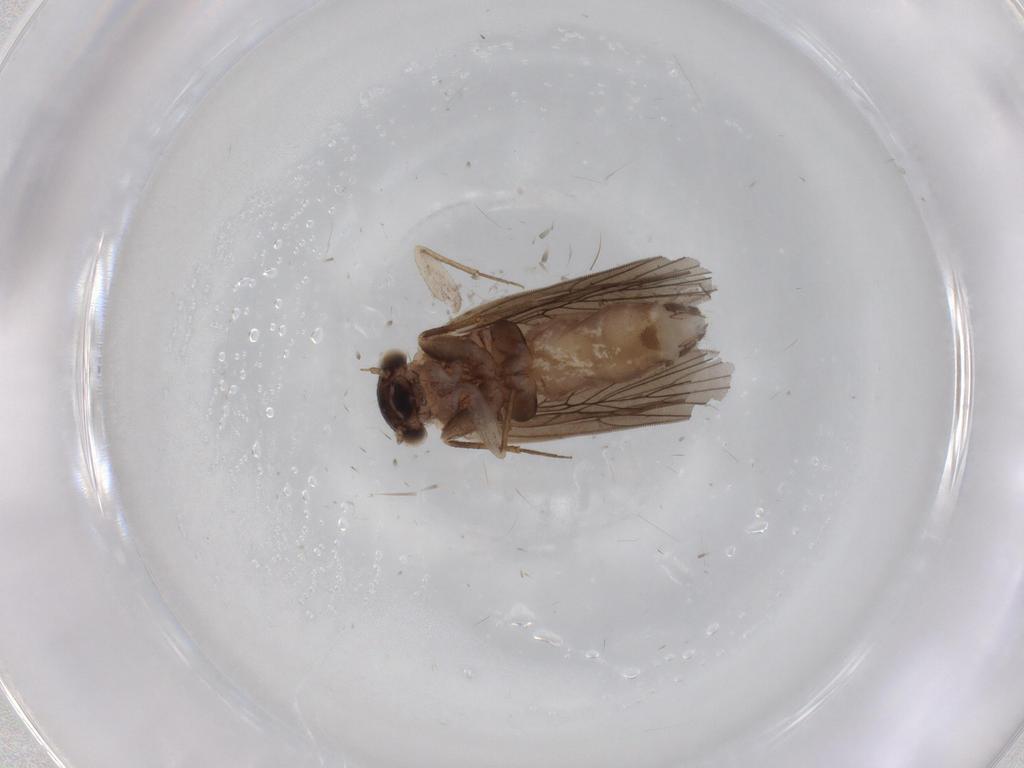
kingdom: Animalia
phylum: Arthropoda
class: Insecta
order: Psocodea
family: Lepidopsocidae
